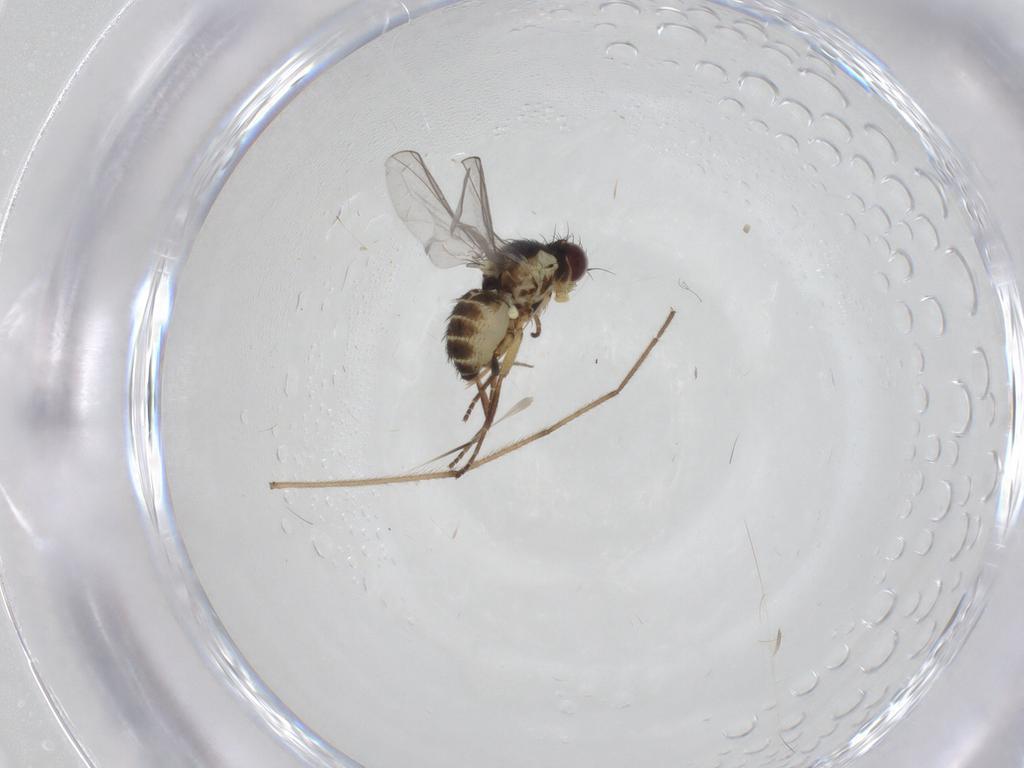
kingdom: Animalia
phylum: Arthropoda
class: Insecta
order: Diptera
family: Agromyzidae
